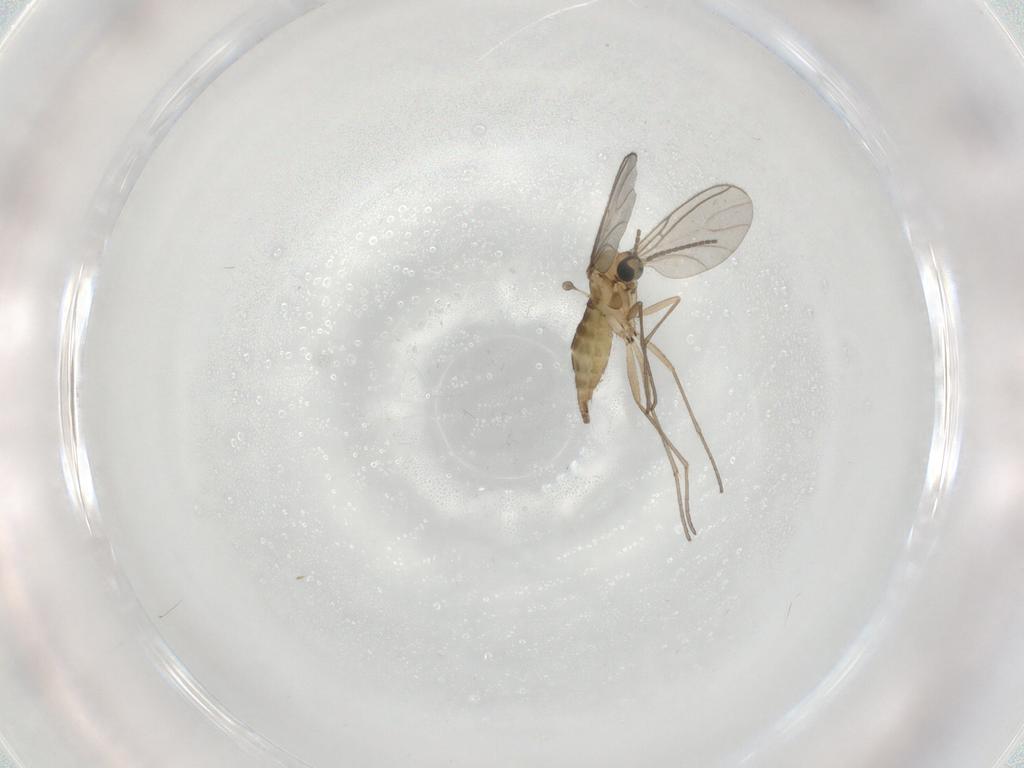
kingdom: Animalia
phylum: Arthropoda
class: Insecta
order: Diptera
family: Sciaridae
